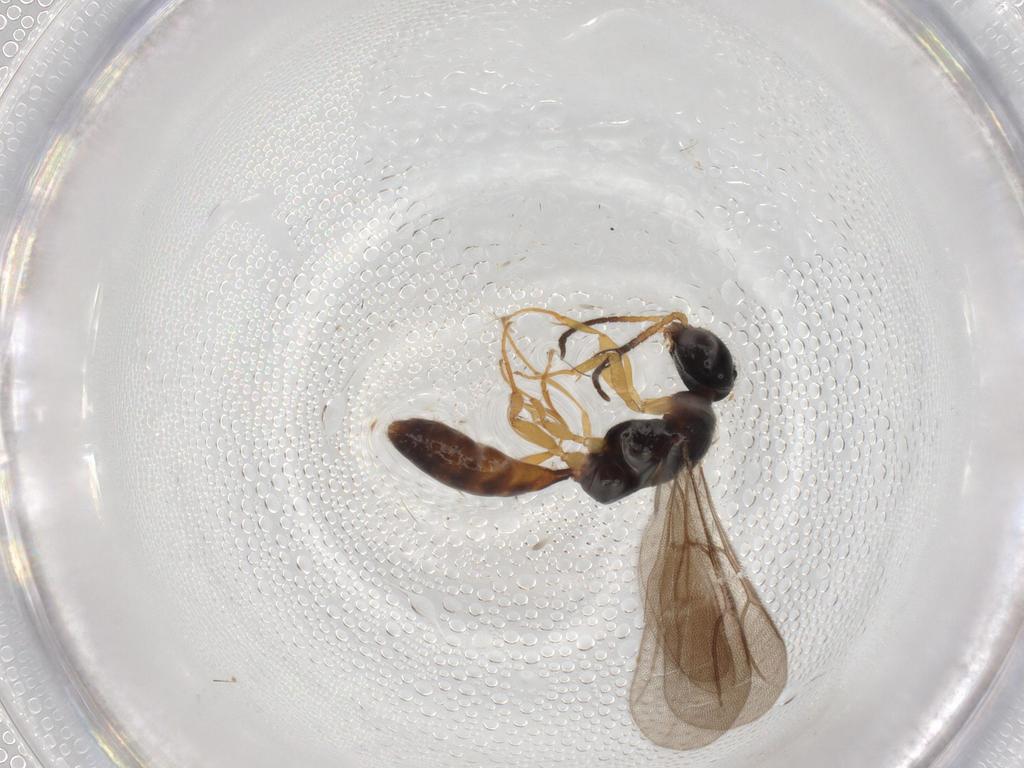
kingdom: Animalia
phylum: Arthropoda
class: Insecta
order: Hymenoptera
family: Bethylidae
